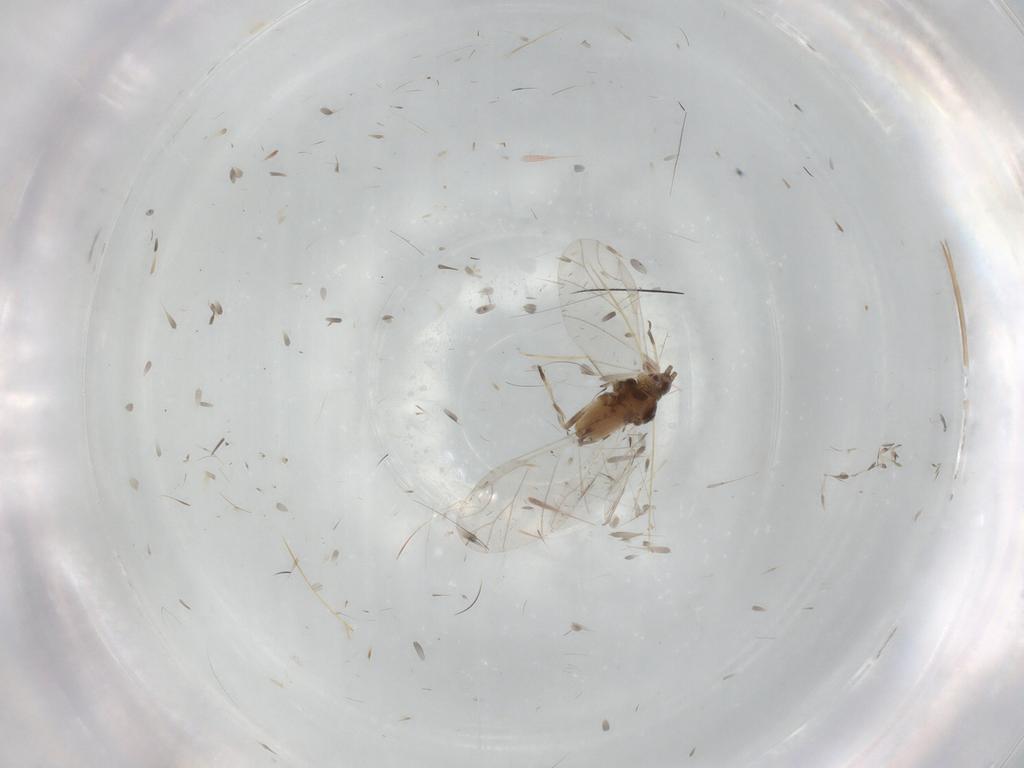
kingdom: Animalia
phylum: Arthropoda
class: Insecta
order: Hemiptera
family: Aphididae
